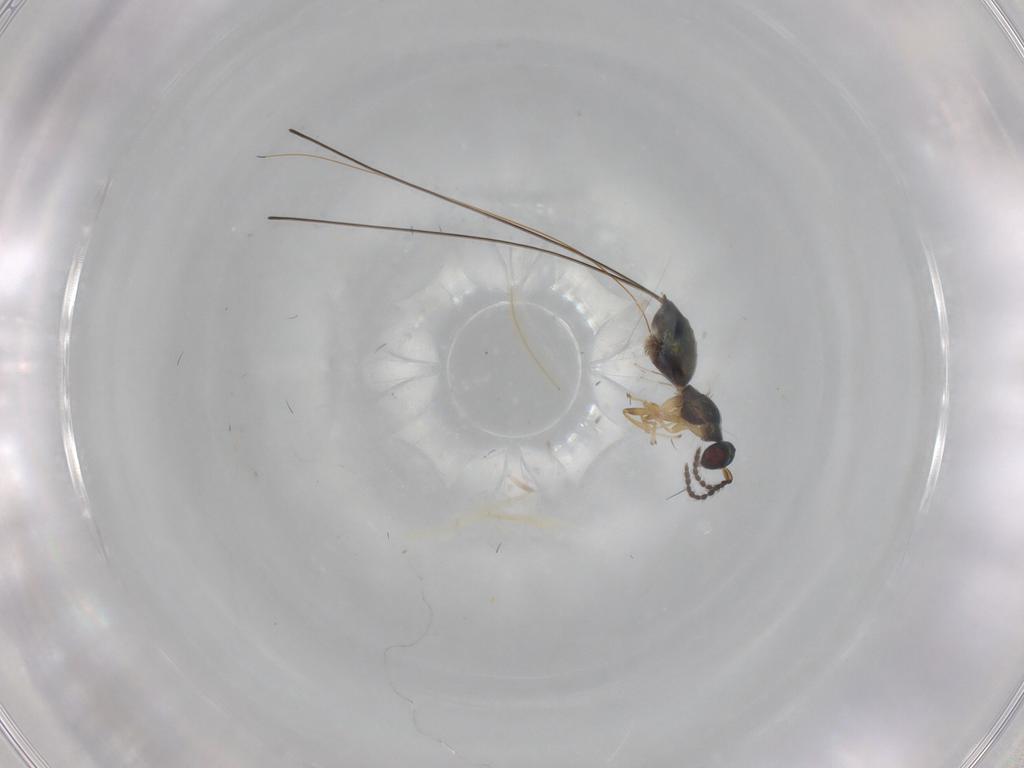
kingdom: Animalia
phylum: Arthropoda
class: Insecta
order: Hymenoptera
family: Pteromalidae
